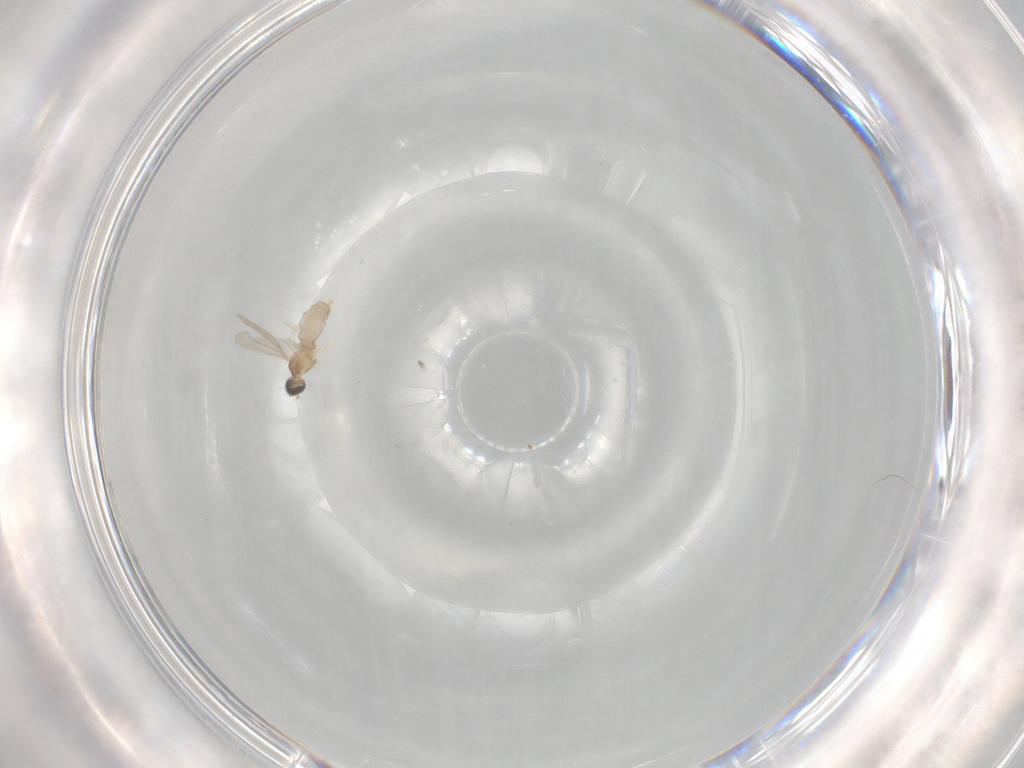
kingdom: Animalia
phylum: Arthropoda
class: Insecta
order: Diptera
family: Cecidomyiidae
